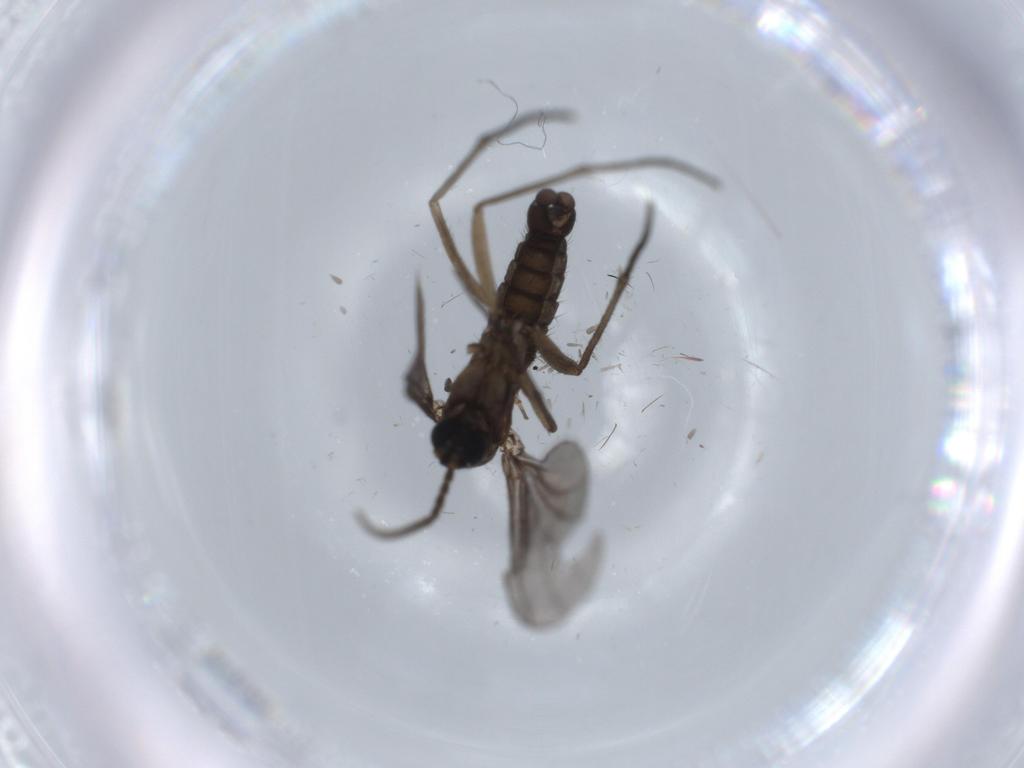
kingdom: Animalia
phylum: Arthropoda
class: Insecta
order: Diptera
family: Sciaridae
